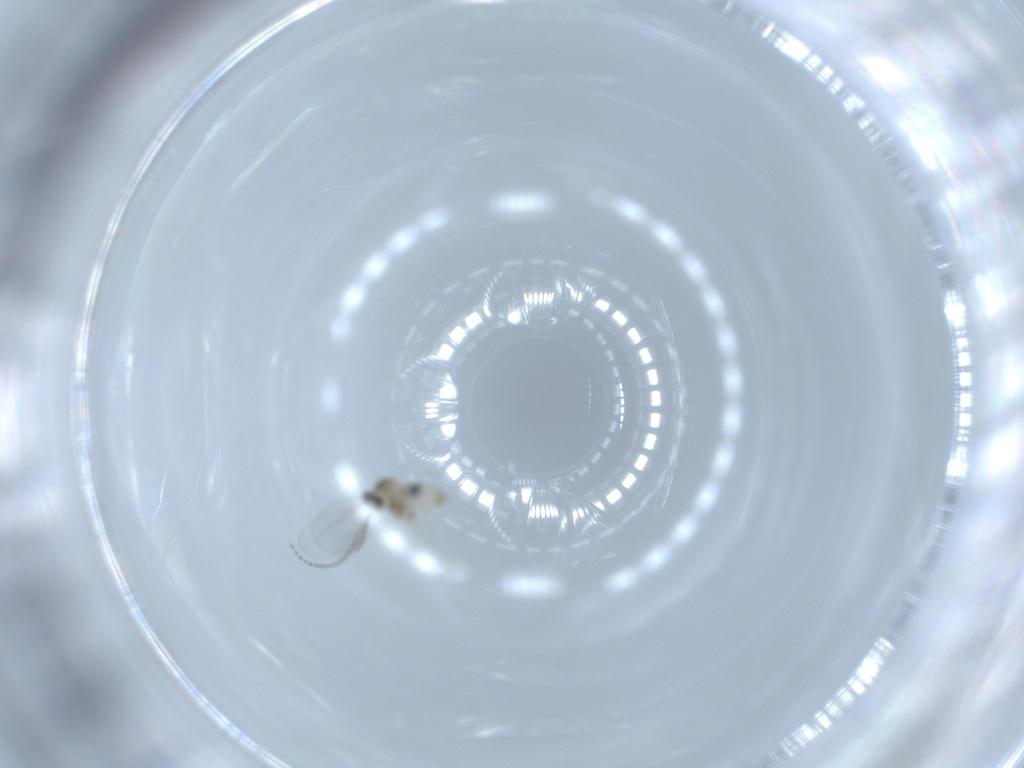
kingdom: Animalia
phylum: Arthropoda
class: Insecta
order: Diptera
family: Cecidomyiidae
